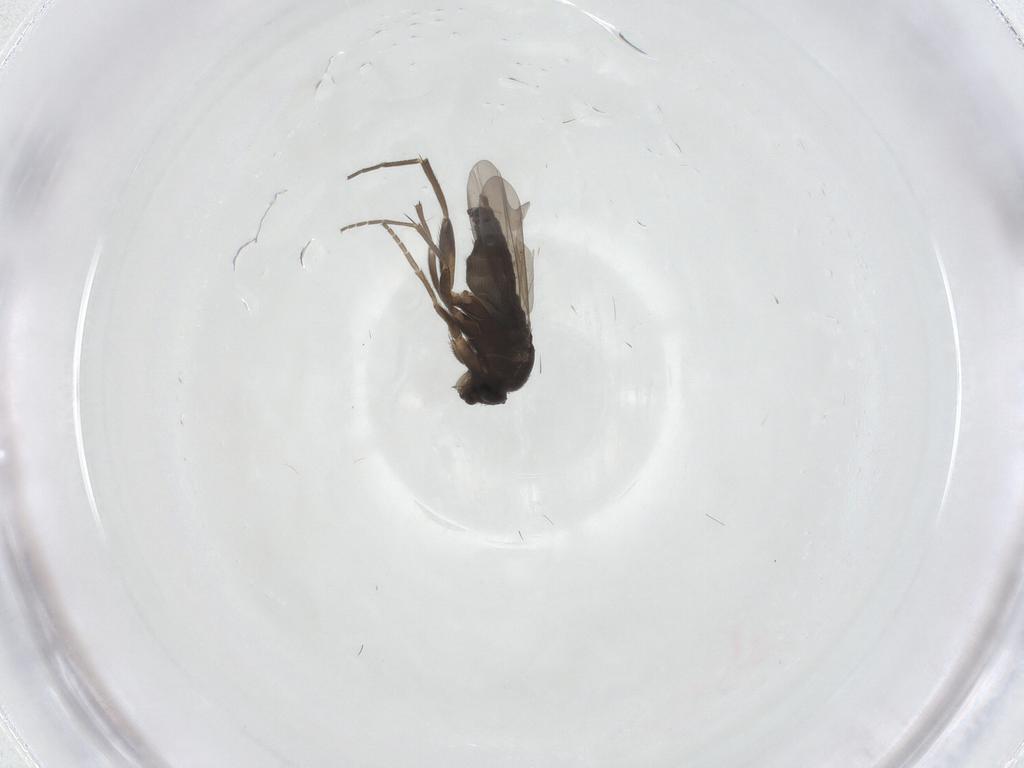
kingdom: Animalia
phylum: Arthropoda
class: Insecta
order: Diptera
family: Phoridae
